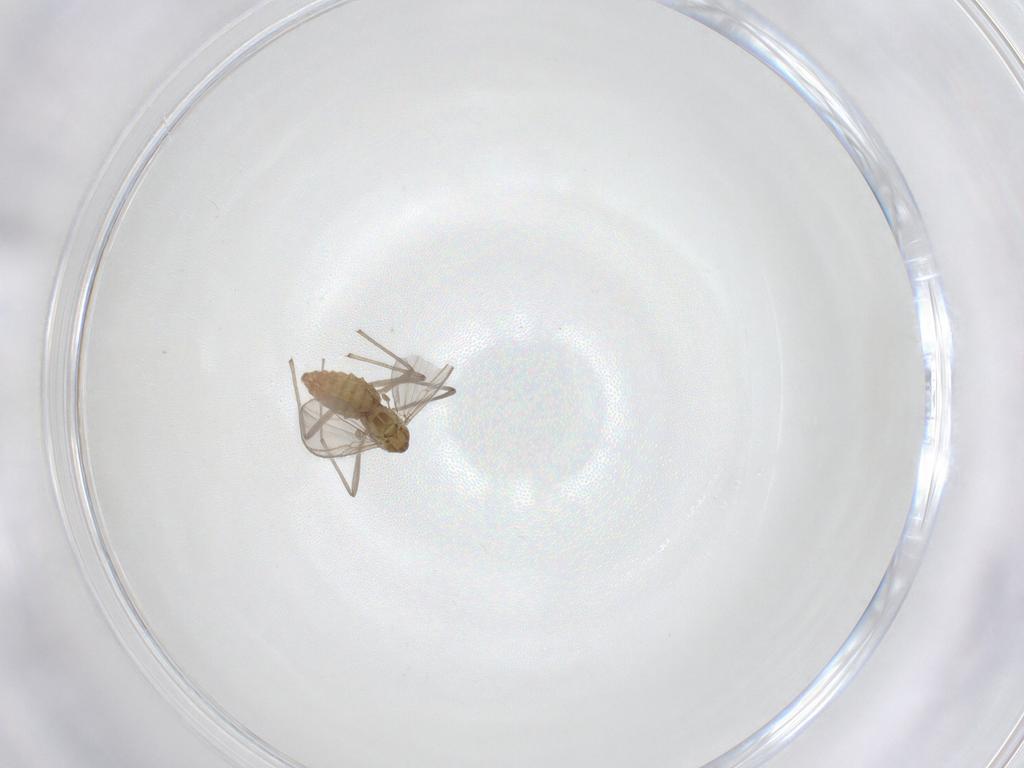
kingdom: Animalia
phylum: Arthropoda
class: Insecta
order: Diptera
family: Chironomidae
